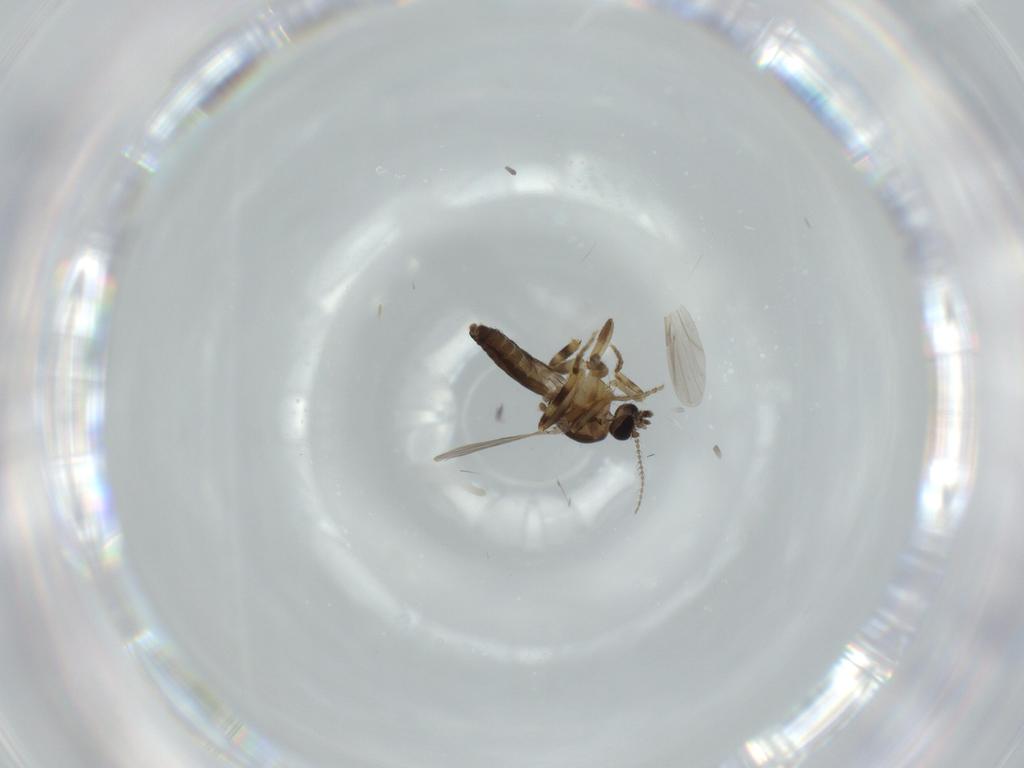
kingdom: Animalia
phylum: Arthropoda
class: Insecta
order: Diptera
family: Ceratopogonidae
